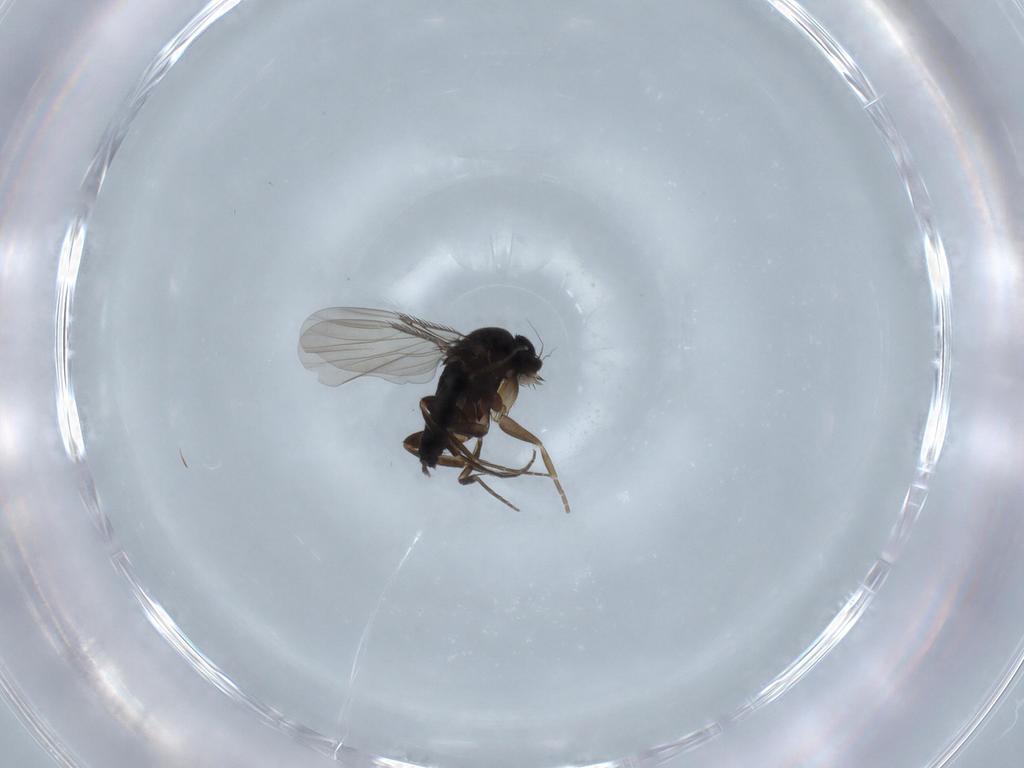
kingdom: Animalia
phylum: Arthropoda
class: Insecta
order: Diptera
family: Phoridae
